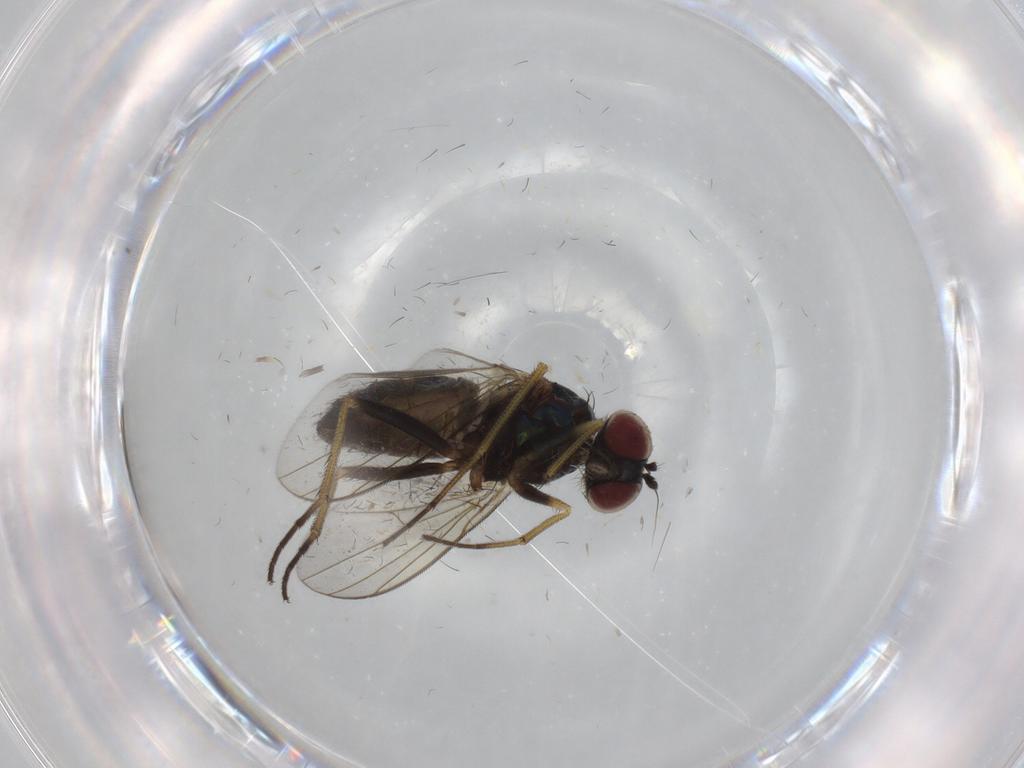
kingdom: Animalia
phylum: Arthropoda
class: Insecta
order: Diptera
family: Dolichopodidae
